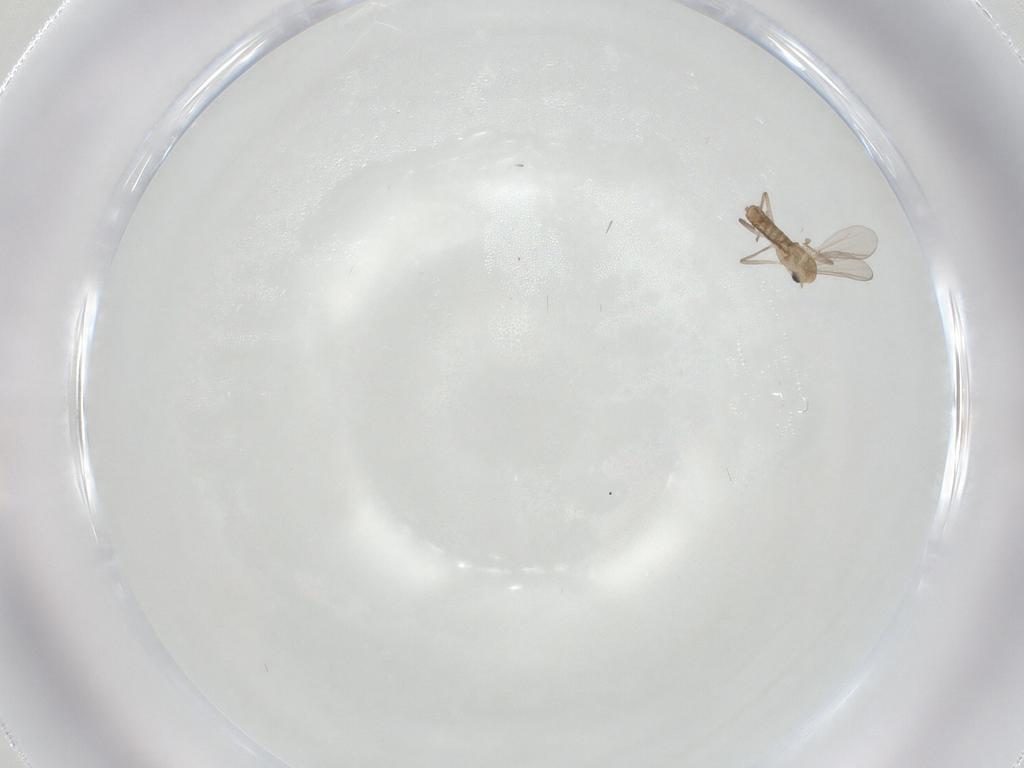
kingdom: Animalia
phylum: Arthropoda
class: Insecta
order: Diptera
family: Chironomidae
